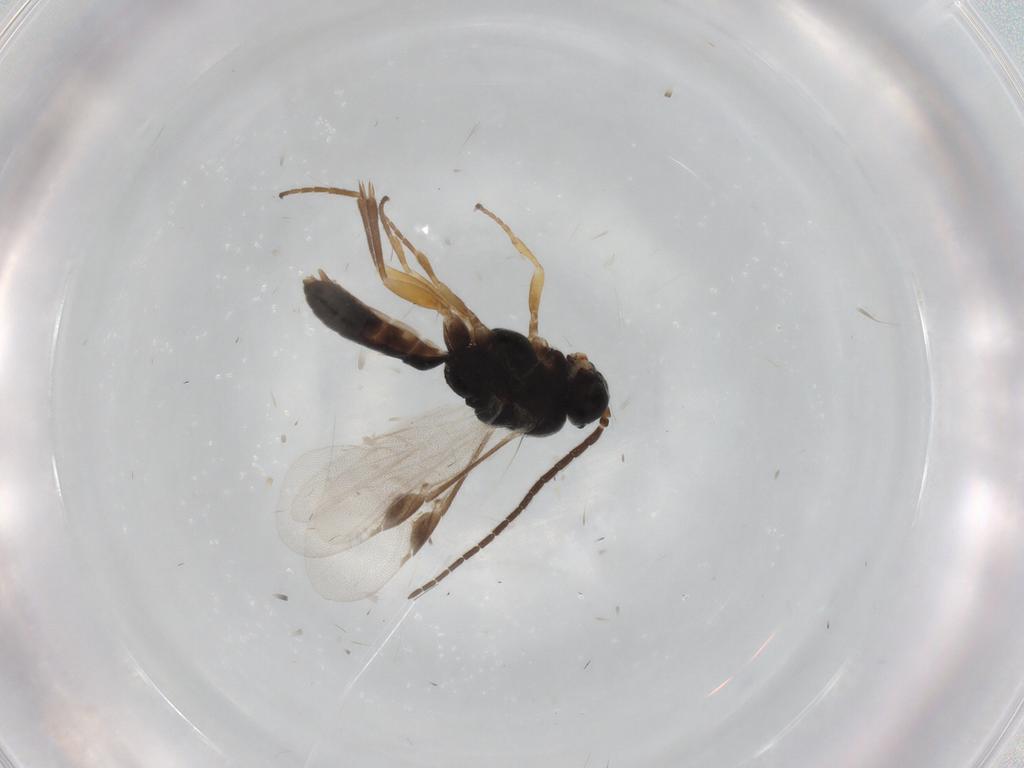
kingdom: Animalia
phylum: Arthropoda
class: Insecta
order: Hymenoptera
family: Braconidae
